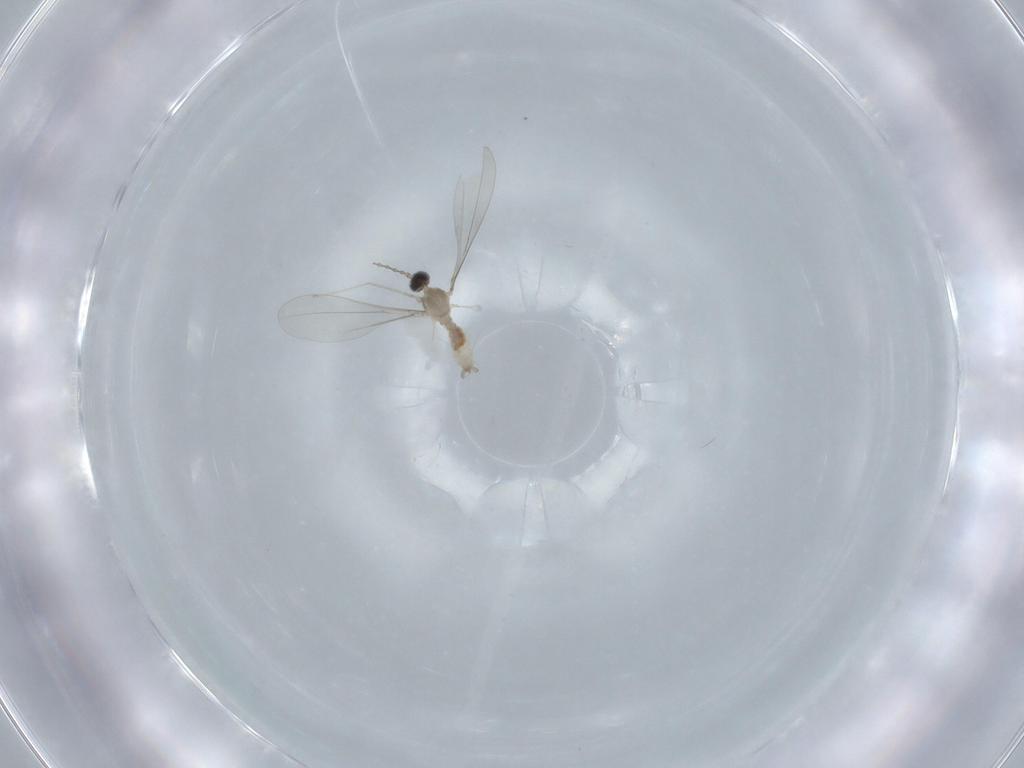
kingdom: Animalia
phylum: Arthropoda
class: Insecta
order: Diptera
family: Cecidomyiidae
